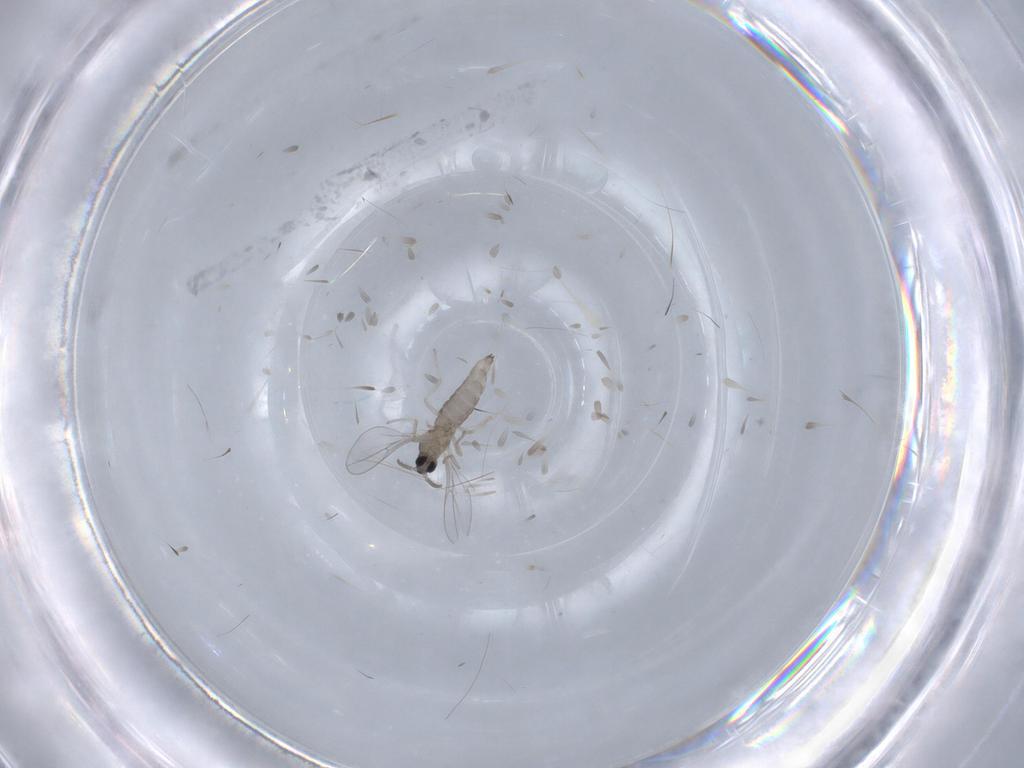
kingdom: Animalia
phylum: Arthropoda
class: Insecta
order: Diptera
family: Cecidomyiidae
